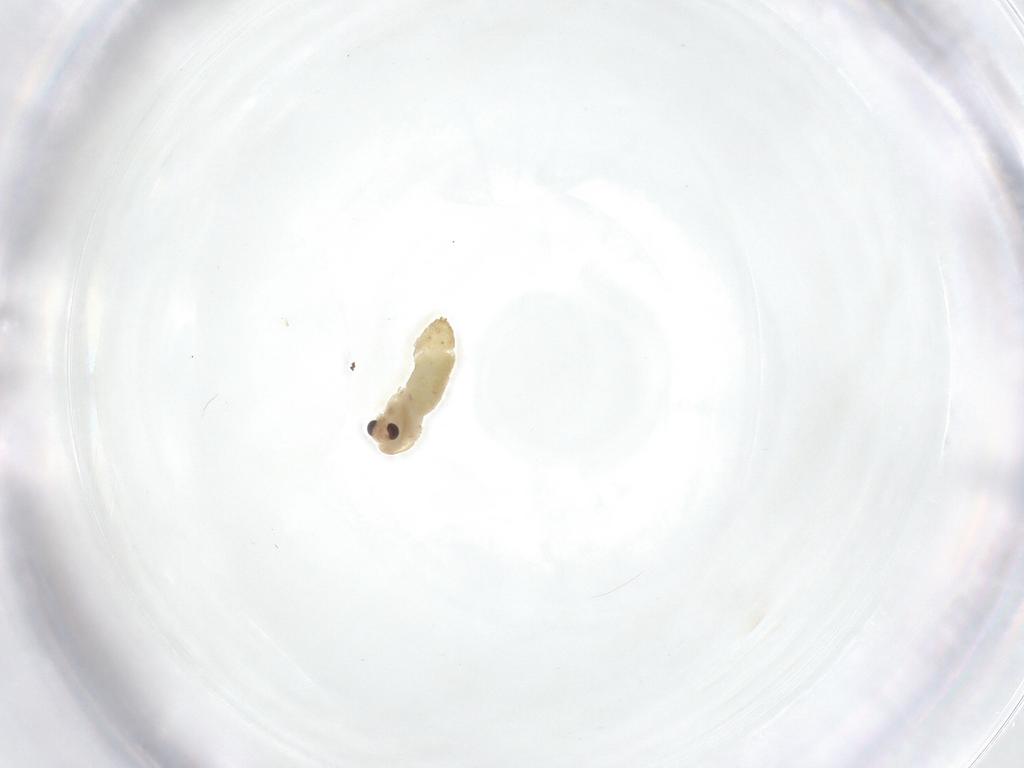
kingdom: Animalia
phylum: Arthropoda
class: Insecta
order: Diptera
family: Chironomidae
